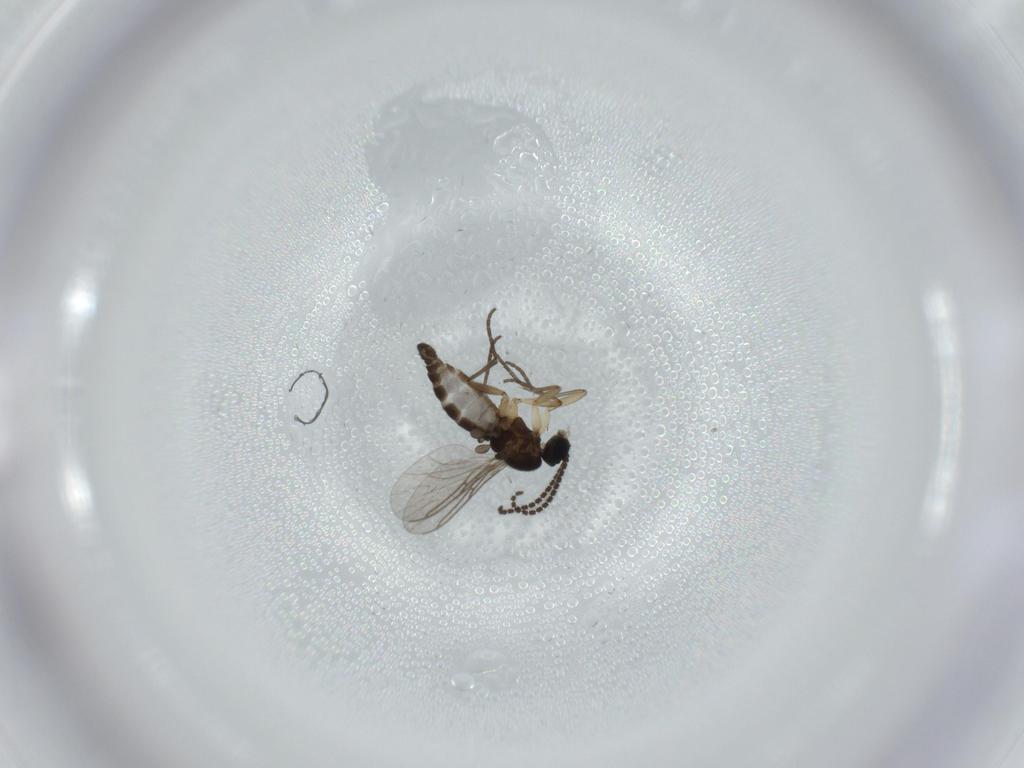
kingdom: Animalia
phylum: Arthropoda
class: Insecta
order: Diptera
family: Sciaridae
